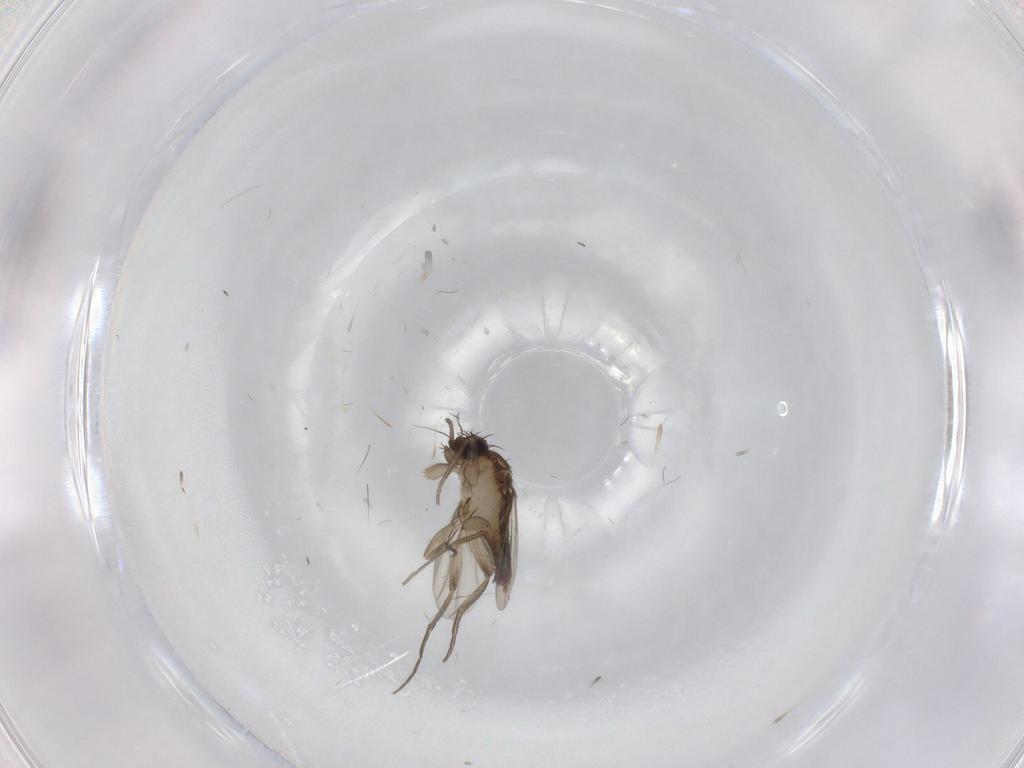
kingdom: Animalia
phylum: Arthropoda
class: Insecta
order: Diptera
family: Phoridae
